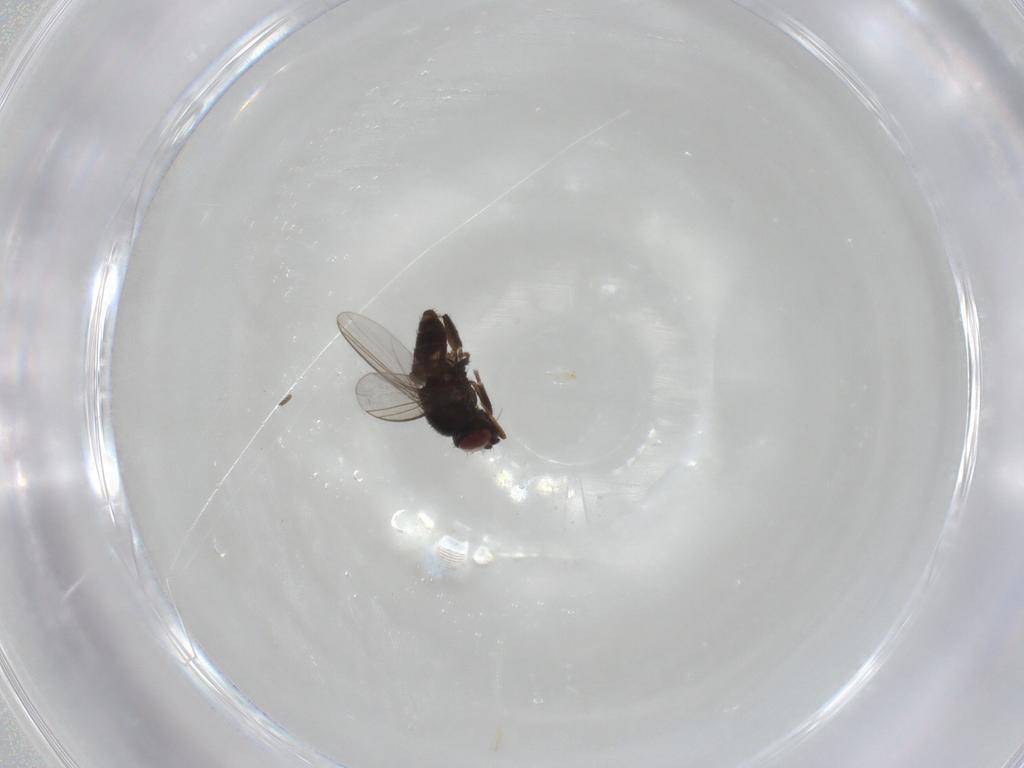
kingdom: Animalia
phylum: Arthropoda
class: Insecta
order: Diptera
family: Milichiidae
